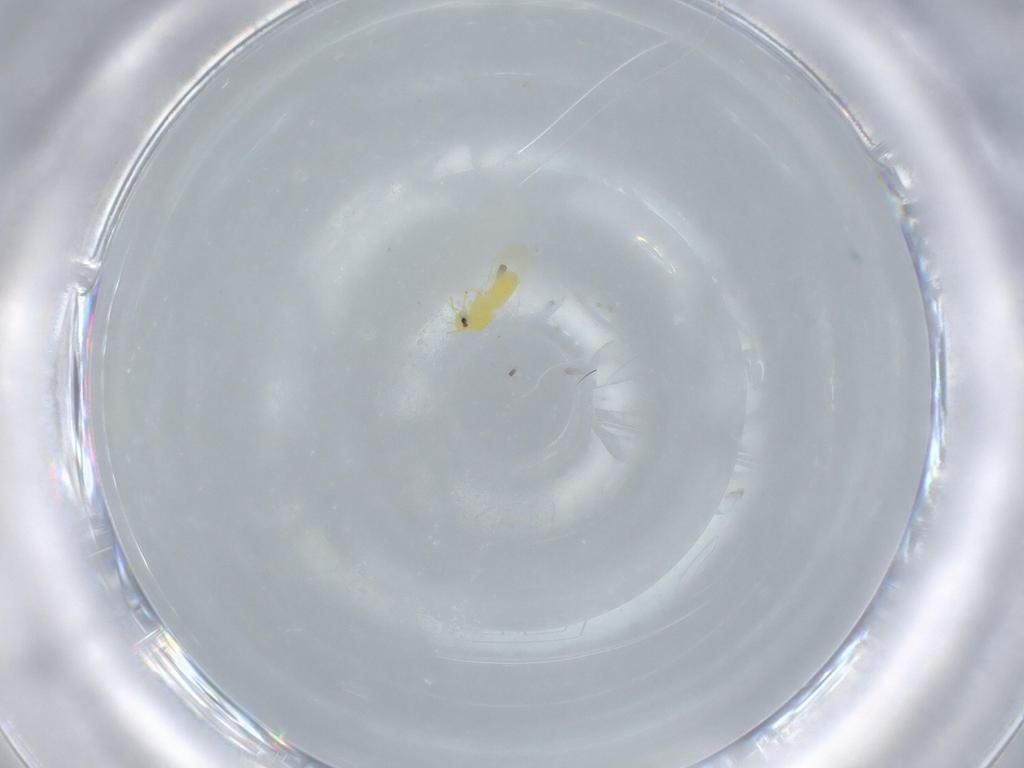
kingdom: Animalia
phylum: Arthropoda
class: Insecta
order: Hemiptera
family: Aleyrodidae
